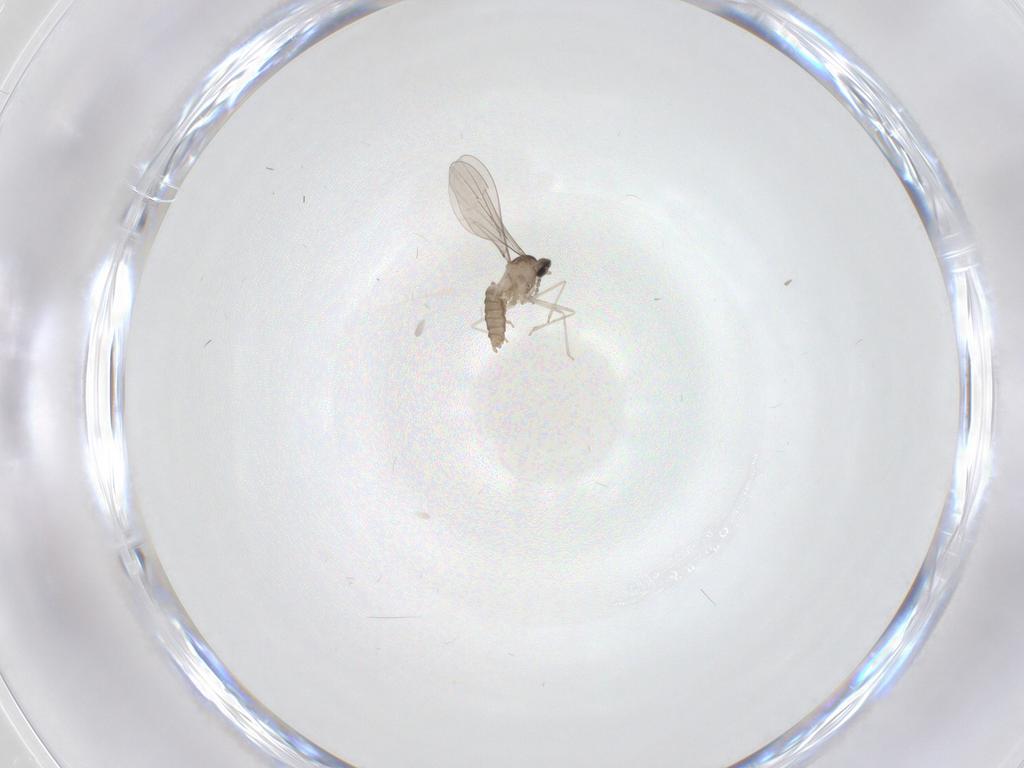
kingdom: Animalia
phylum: Arthropoda
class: Insecta
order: Diptera
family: Cecidomyiidae
